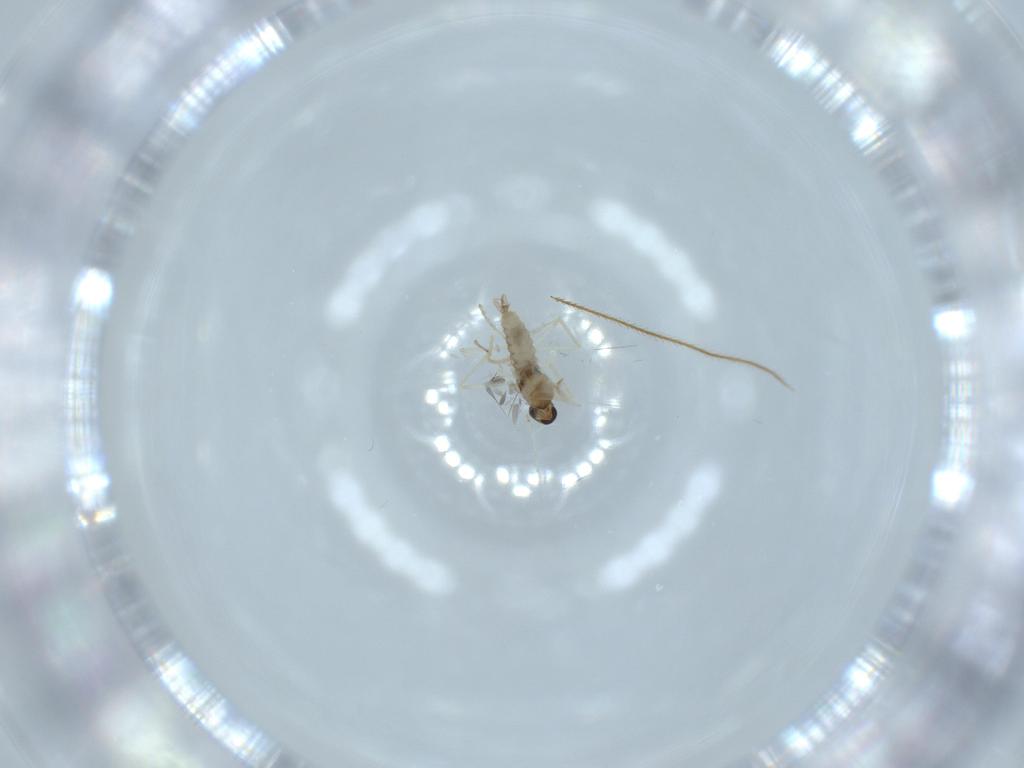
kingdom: Animalia
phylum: Arthropoda
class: Insecta
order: Diptera
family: Cecidomyiidae
